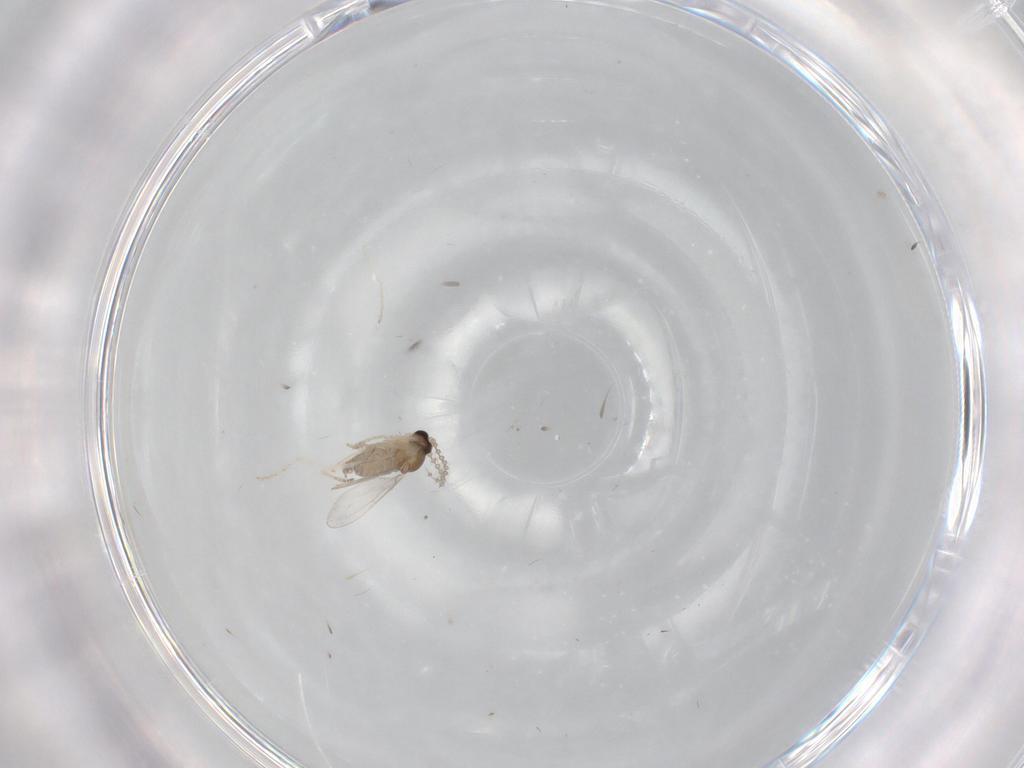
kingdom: Animalia
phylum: Arthropoda
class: Insecta
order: Diptera
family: Cecidomyiidae
